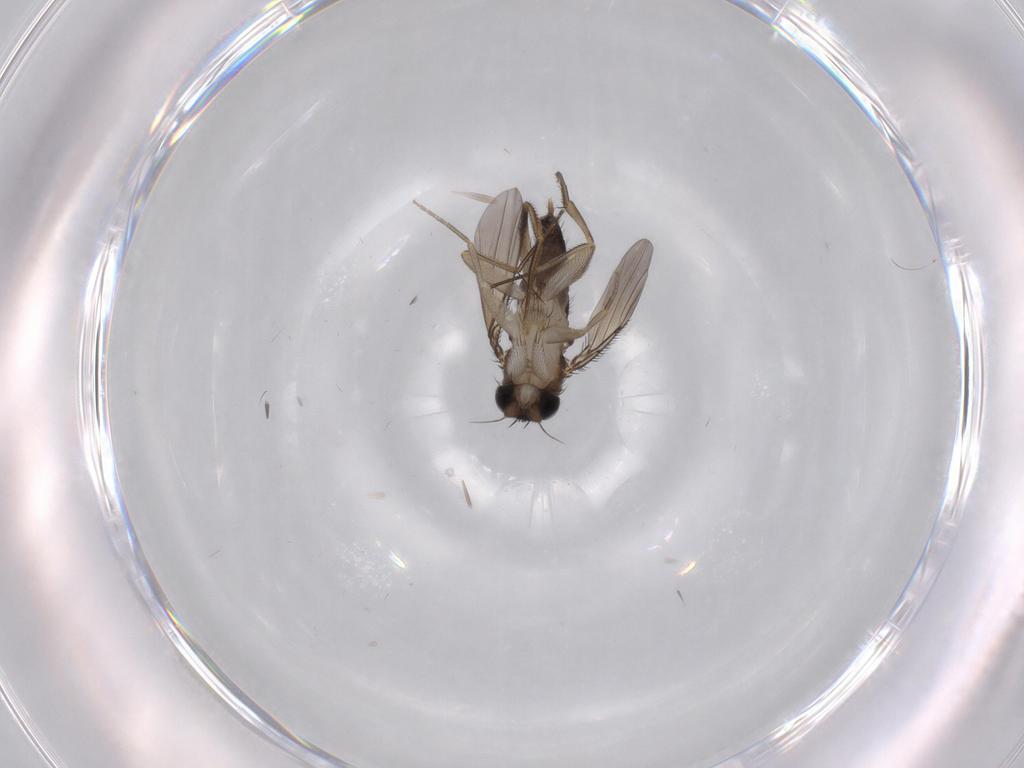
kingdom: Animalia
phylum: Arthropoda
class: Insecta
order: Diptera
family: Phoridae
